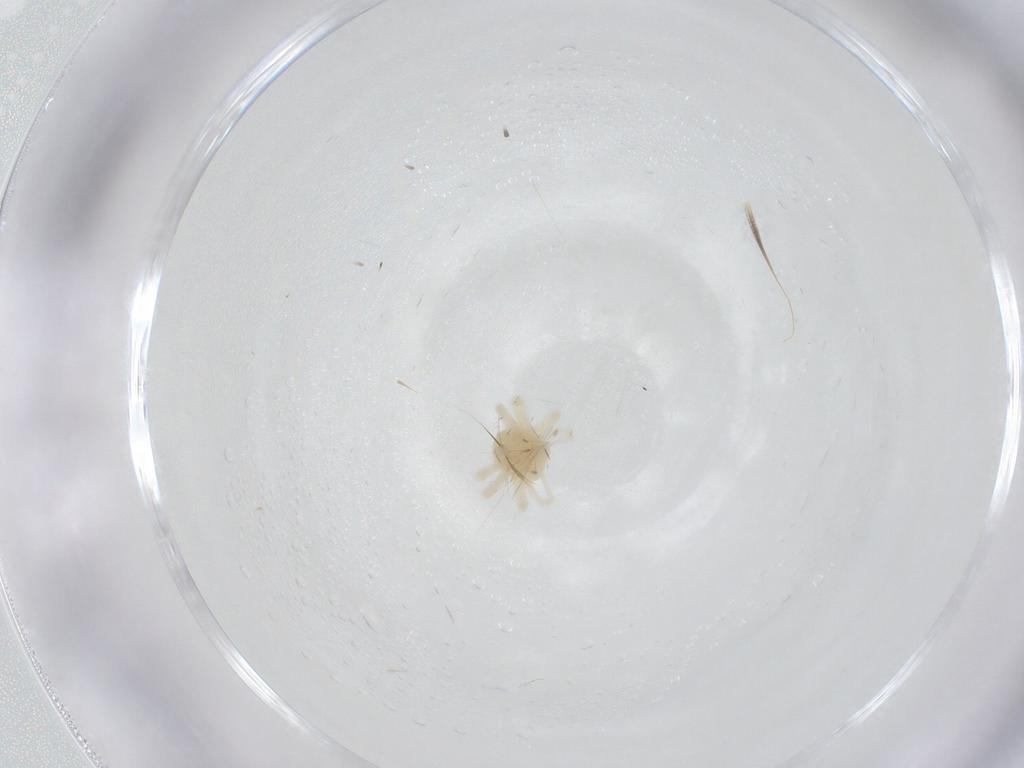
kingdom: Animalia
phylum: Arthropoda
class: Arachnida
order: Trombidiformes
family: Anystidae
